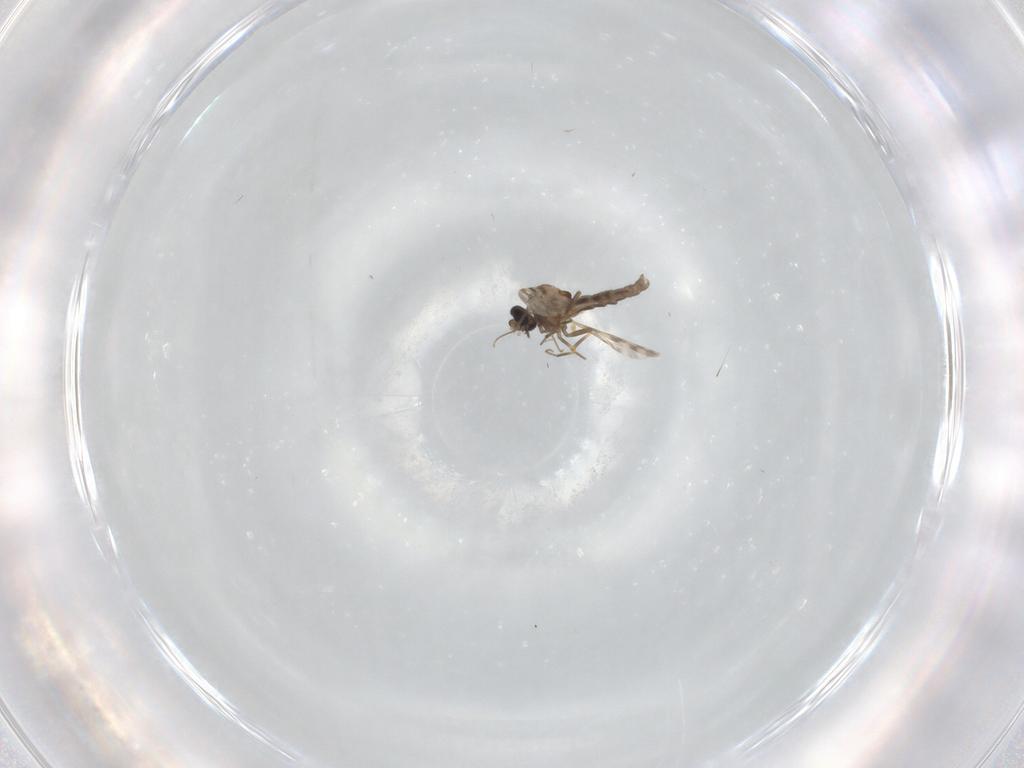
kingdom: Animalia
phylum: Arthropoda
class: Insecta
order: Diptera
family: Ceratopogonidae
